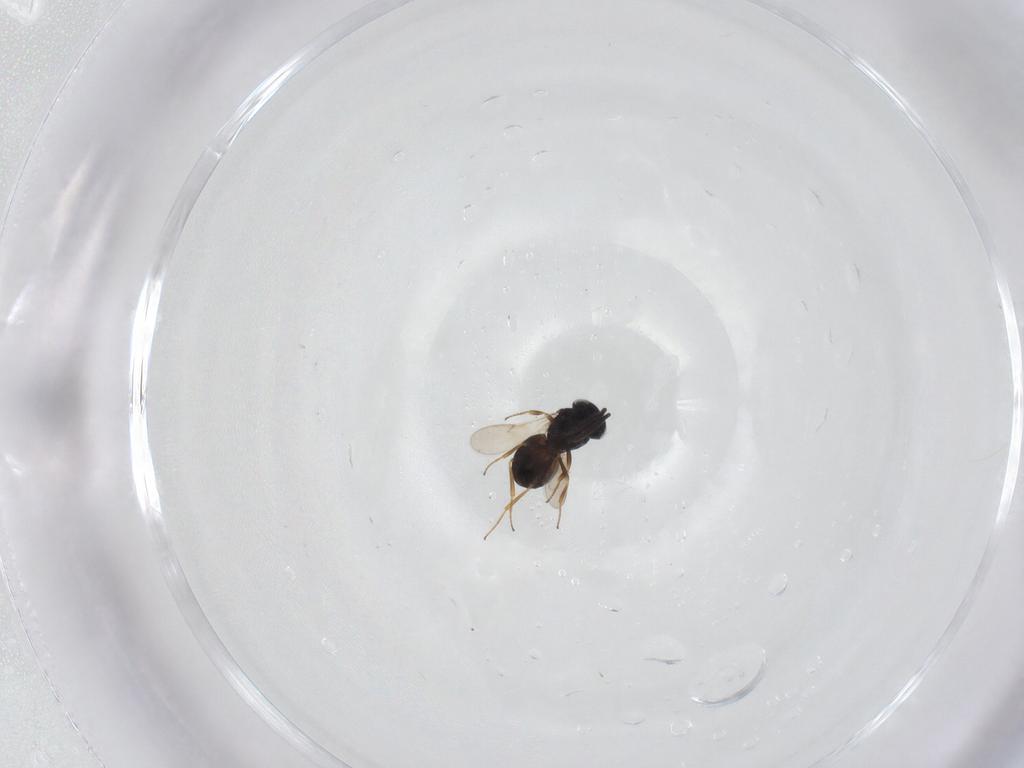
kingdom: Animalia
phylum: Arthropoda
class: Insecta
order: Hymenoptera
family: Scelionidae
